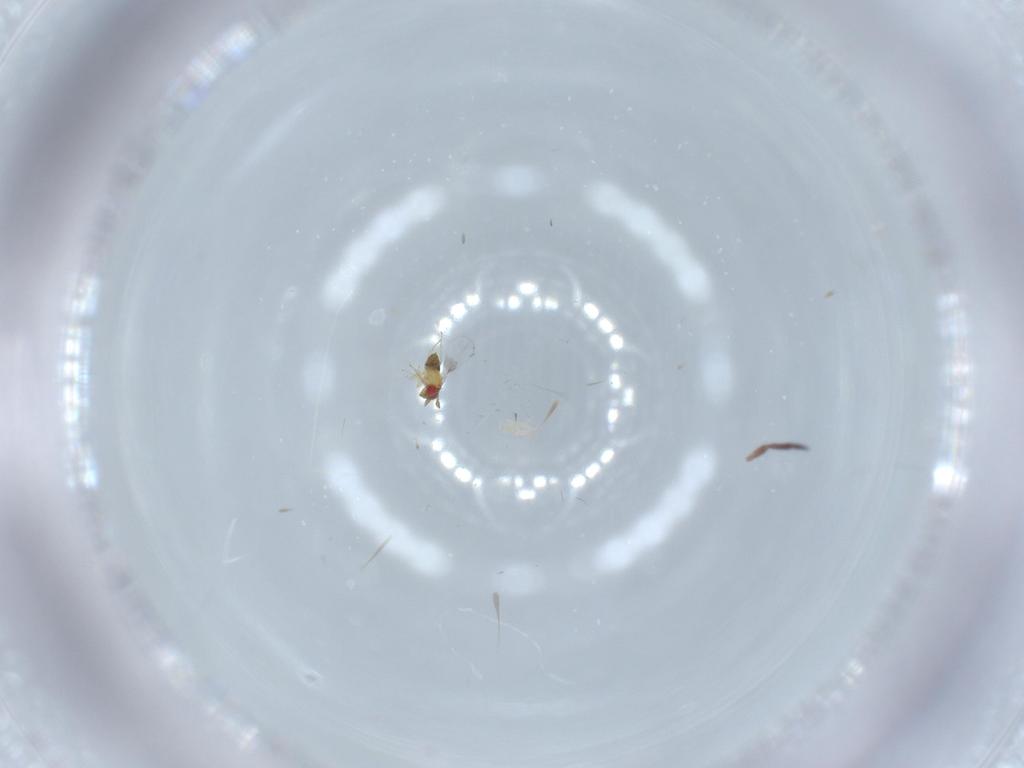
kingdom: Animalia
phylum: Arthropoda
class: Insecta
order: Hymenoptera
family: Trichogrammatidae
